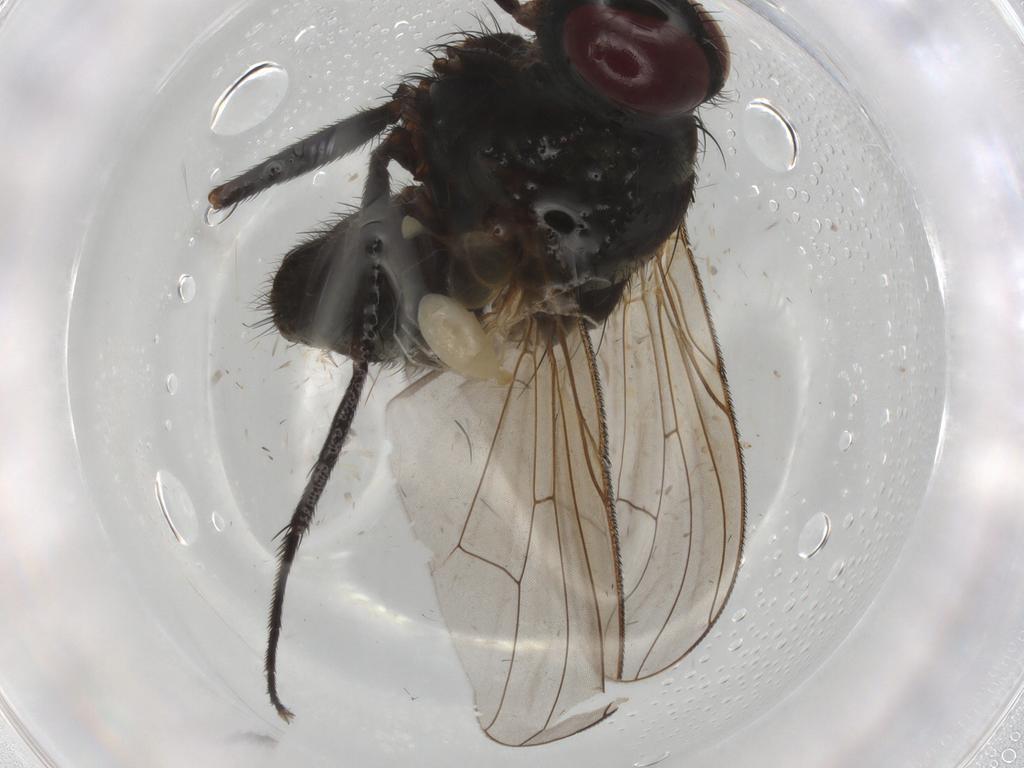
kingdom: Animalia
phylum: Arthropoda
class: Insecta
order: Diptera
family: Muscidae
